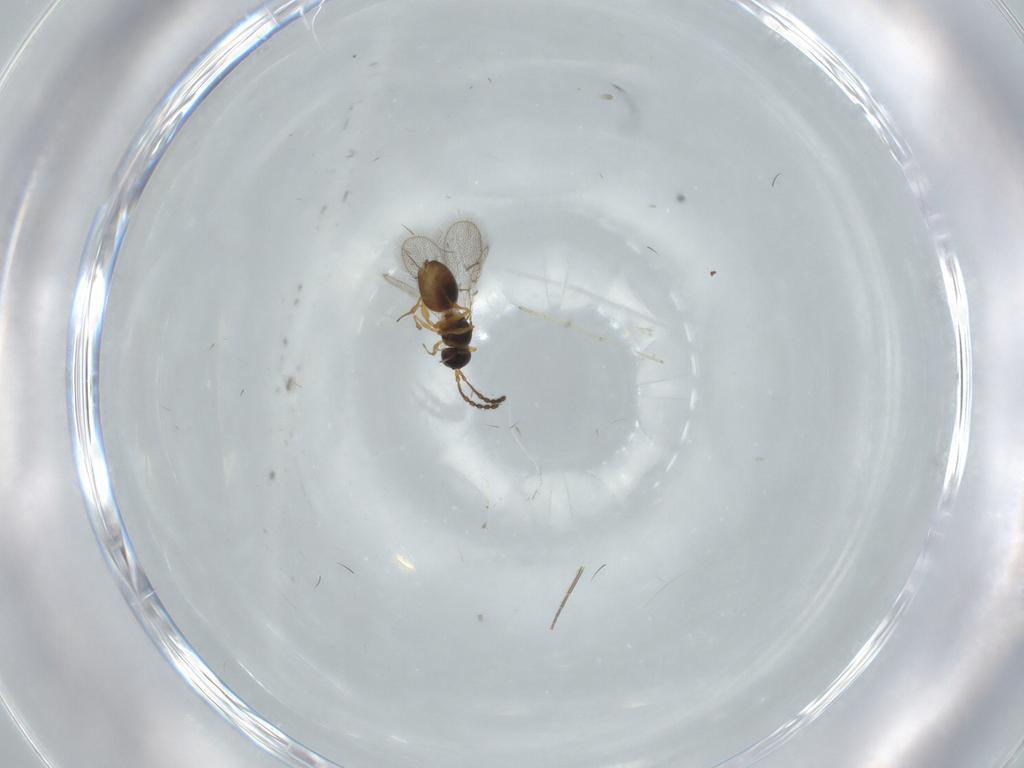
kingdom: Animalia
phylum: Arthropoda
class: Insecta
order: Hymenoptera
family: Figitidae
